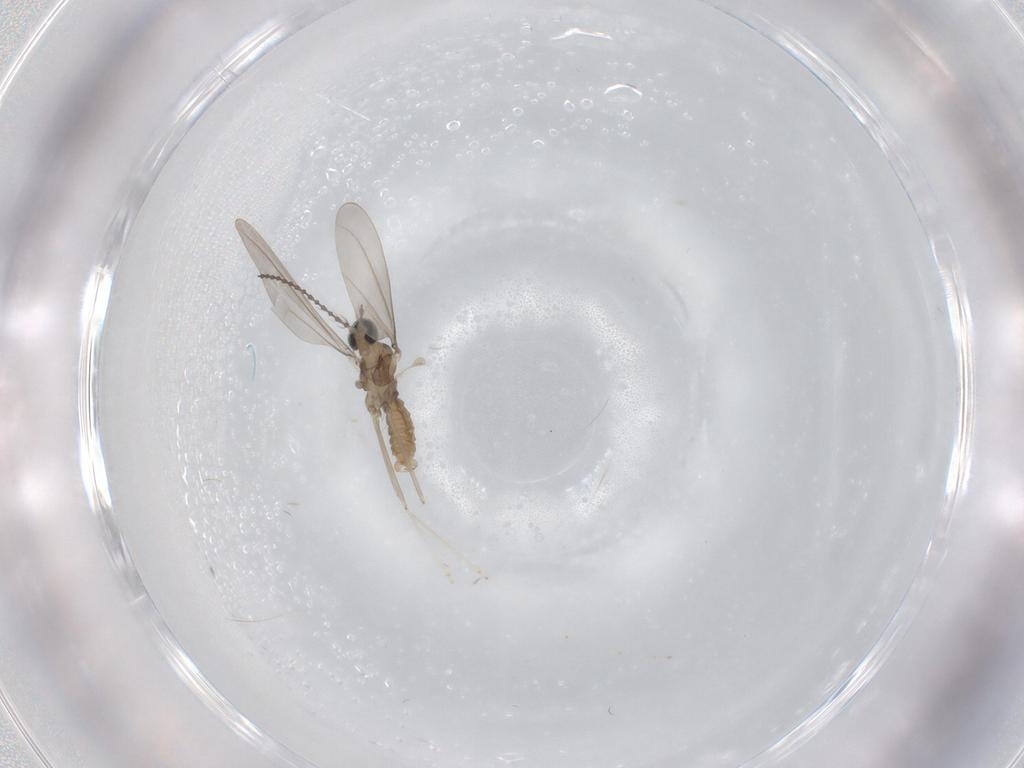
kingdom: Animalia
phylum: Arthropoda
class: Insecta
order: Diptera
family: Cecidomyiidae
